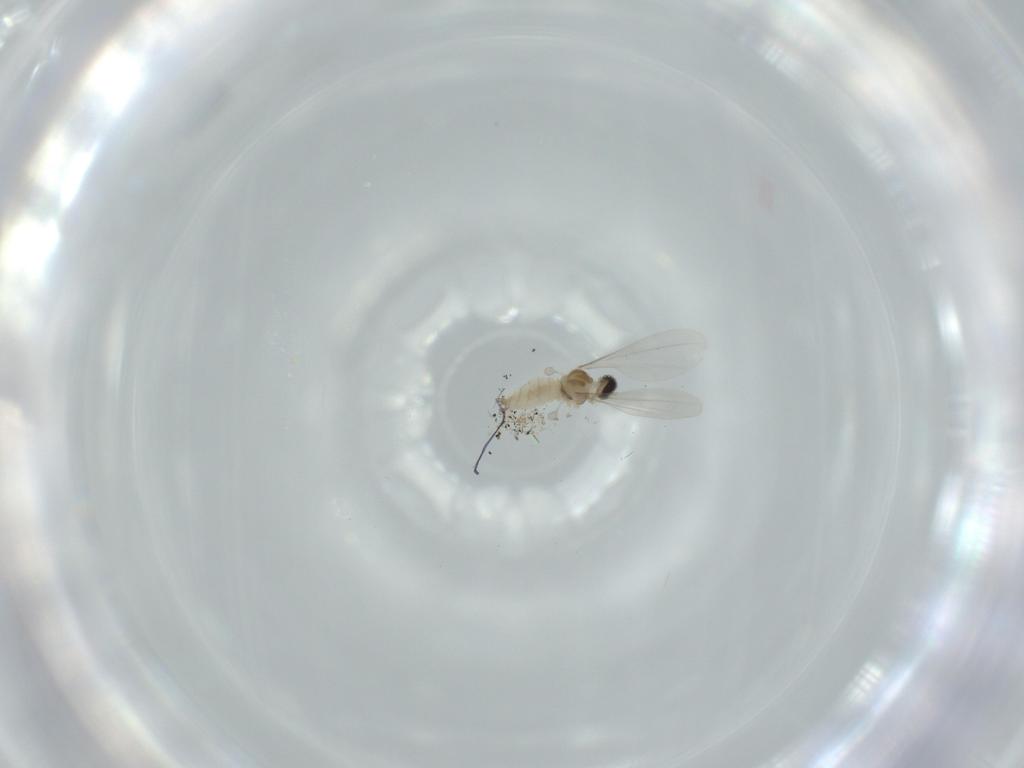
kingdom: Animalia
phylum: Arthropoda
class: Insecta
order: Diptera
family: Cecidomyiidae
